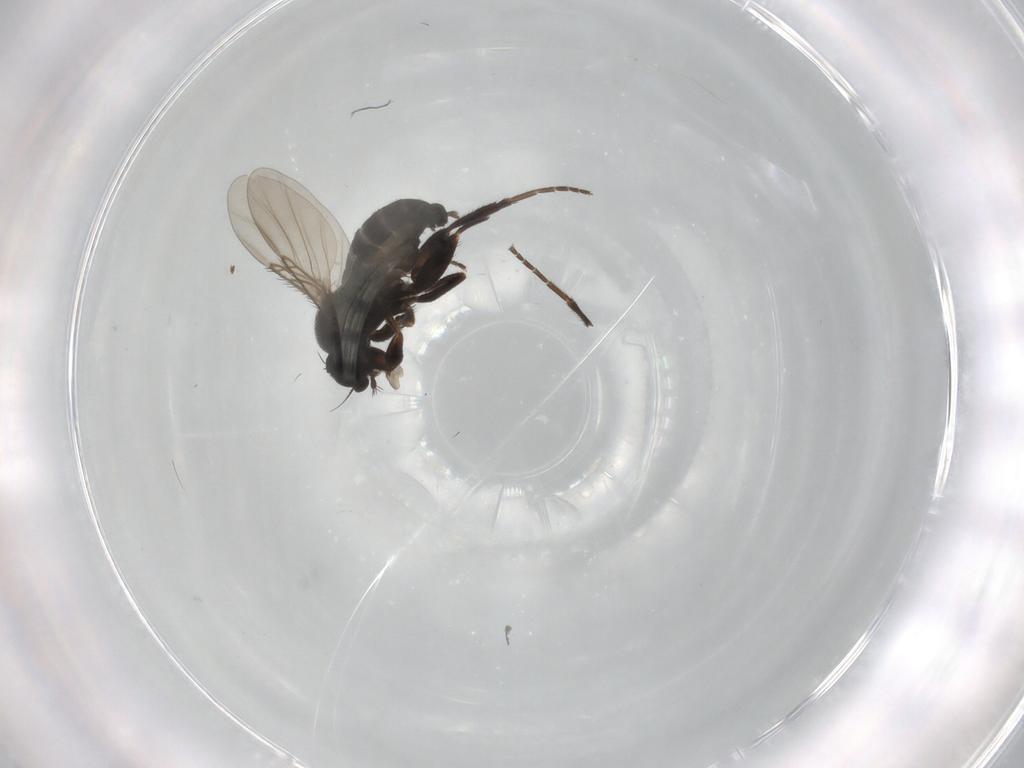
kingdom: Animalia
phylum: Arthropoda
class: Insecta
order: Diptera
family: Phoridae
